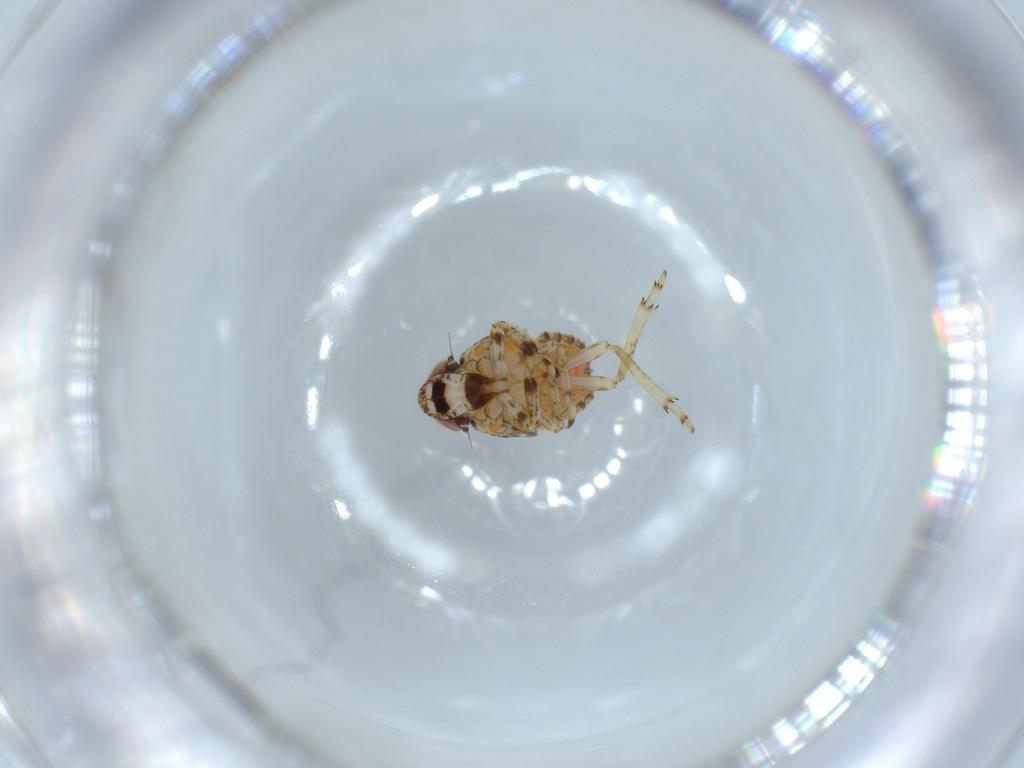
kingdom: Animalia
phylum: Arthropoda
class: Insecta
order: Hemiptera
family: Issidae
